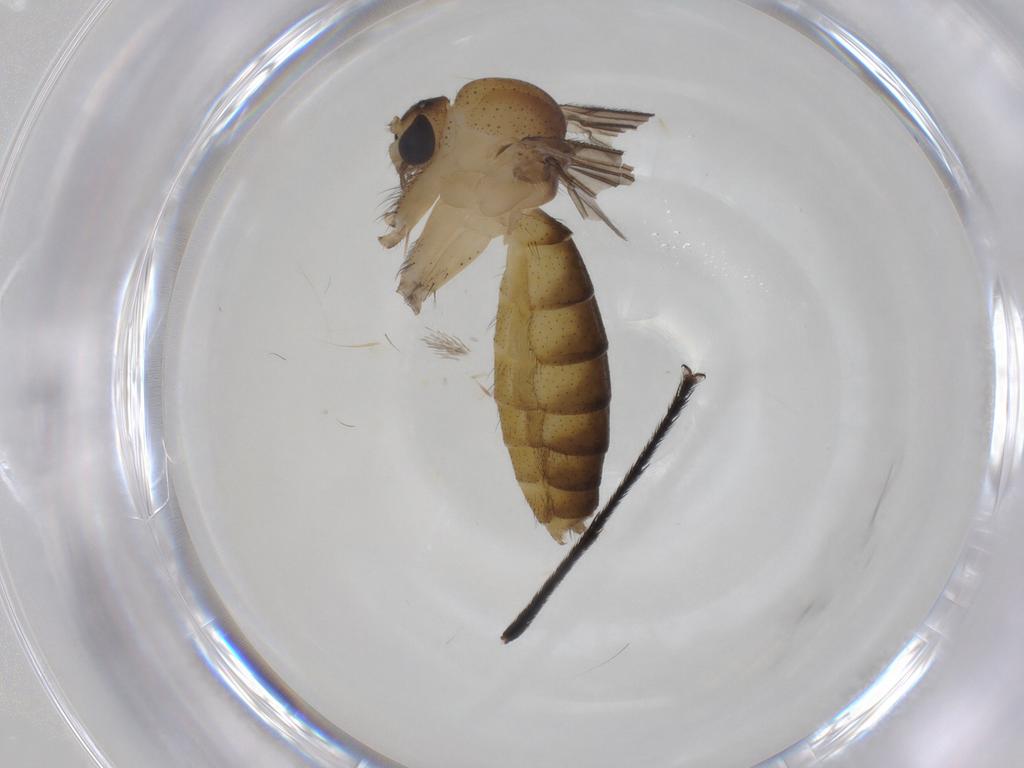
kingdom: Animalia
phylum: Arthropoda
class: Insecta
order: Diptera
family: Mycetophilidae
